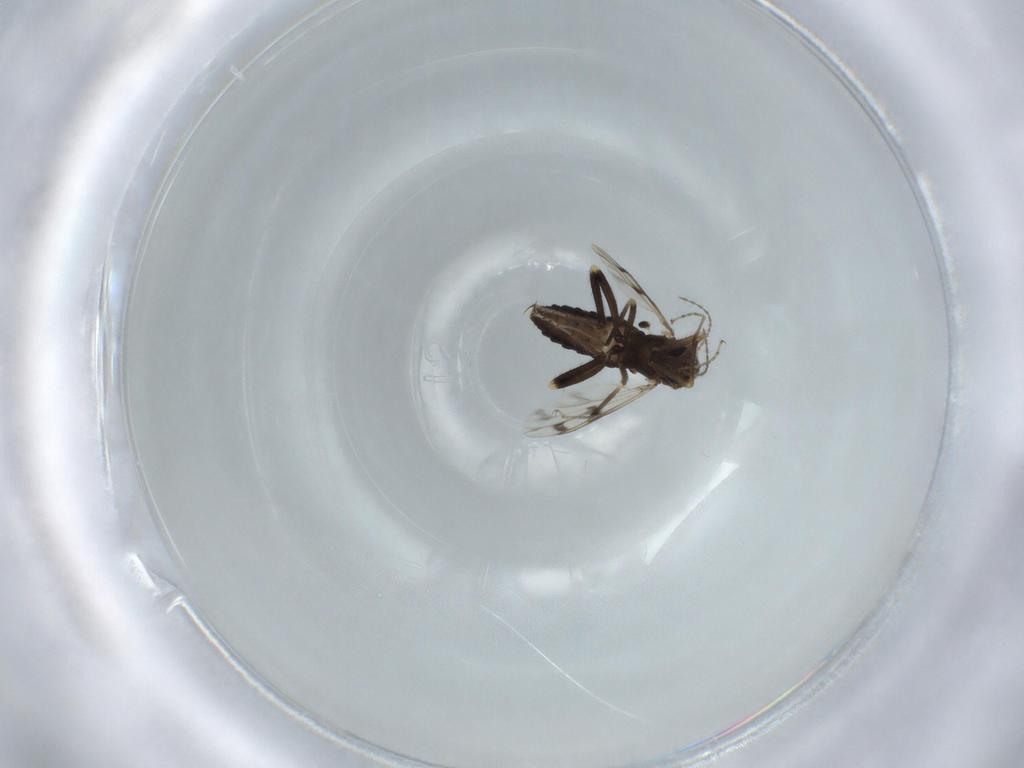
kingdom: Animalia
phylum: Arthropoda
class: Insecta
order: Diptera
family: Ceratopogonidae
